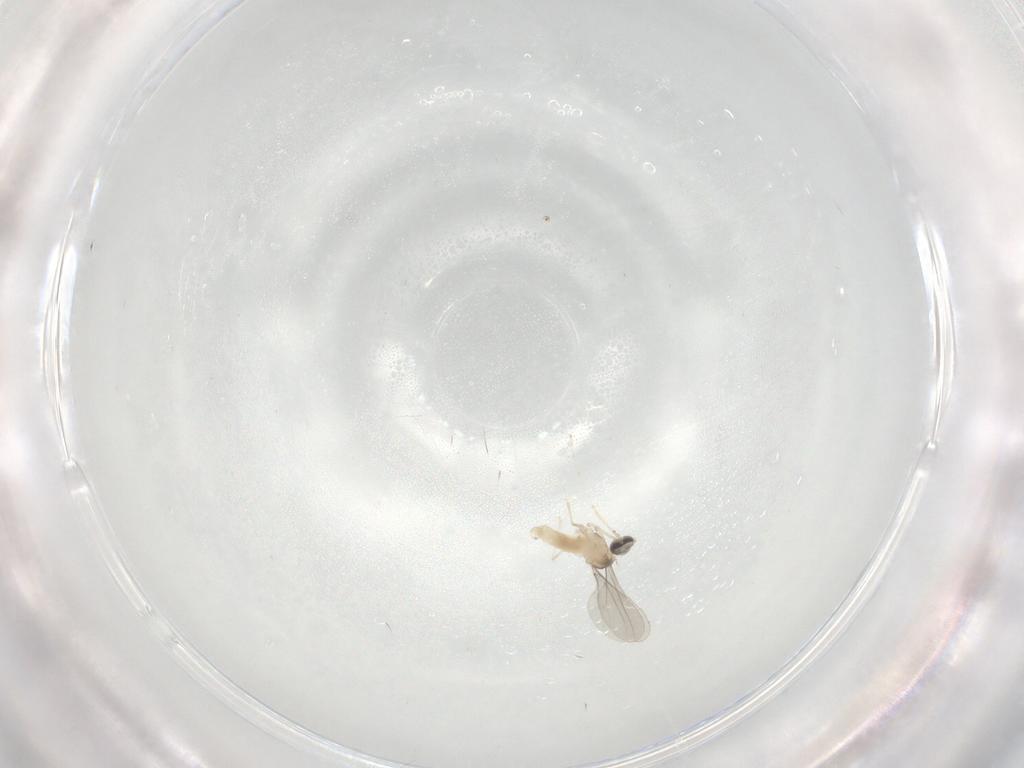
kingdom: Animalia
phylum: Arthropoda
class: Insecta
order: Diptera
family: Cecidomyiidae
